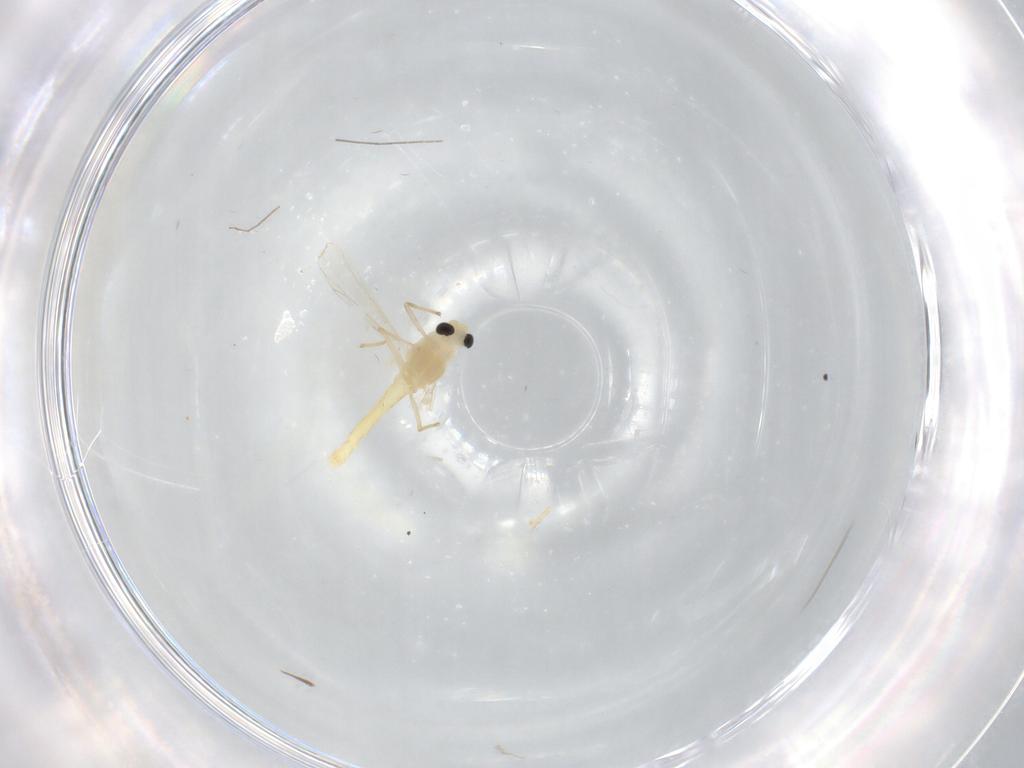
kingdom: Animalia
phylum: Arthropoda
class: Insecta
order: Diptera
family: Chironomidae
